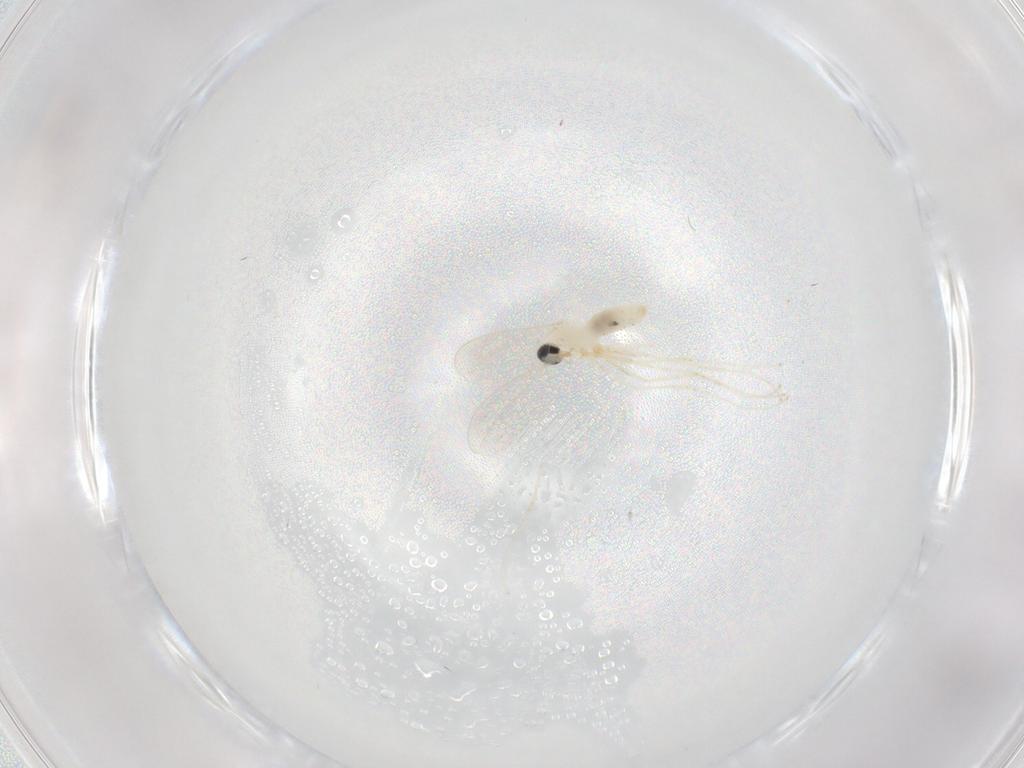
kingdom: Animalia
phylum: Arthropoda
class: Insecta
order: Diptera
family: Cecidomyiidae
